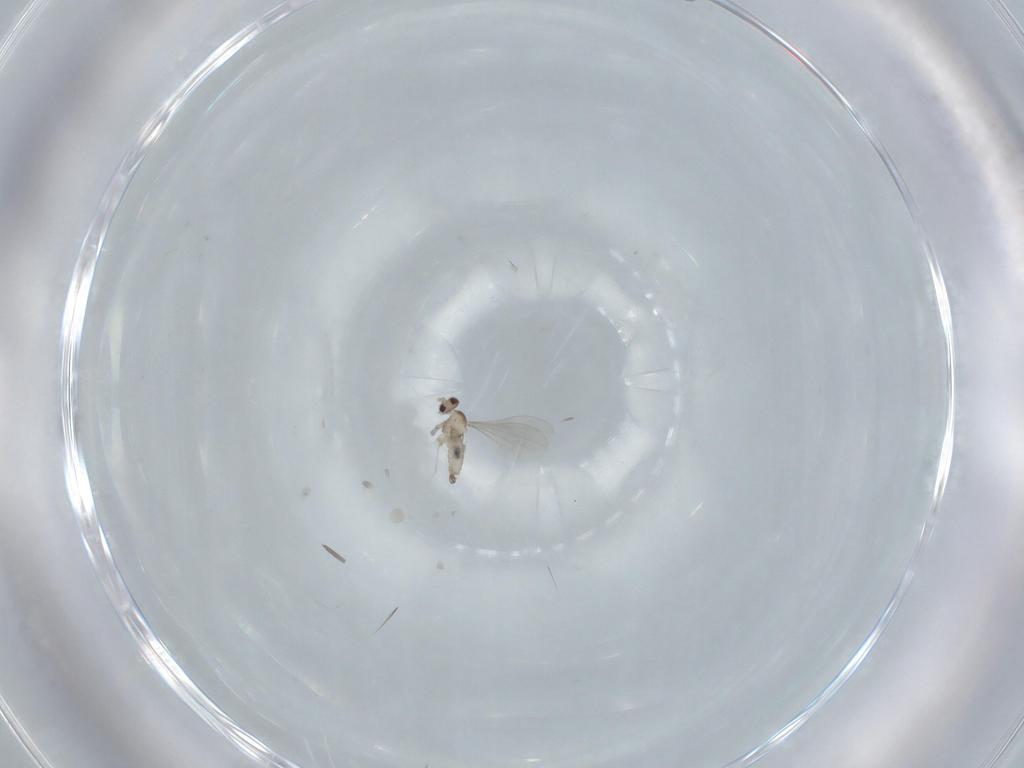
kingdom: Animalia
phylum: Arthropoda
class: Insecta
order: Diptera
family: Cecidomyiidae
